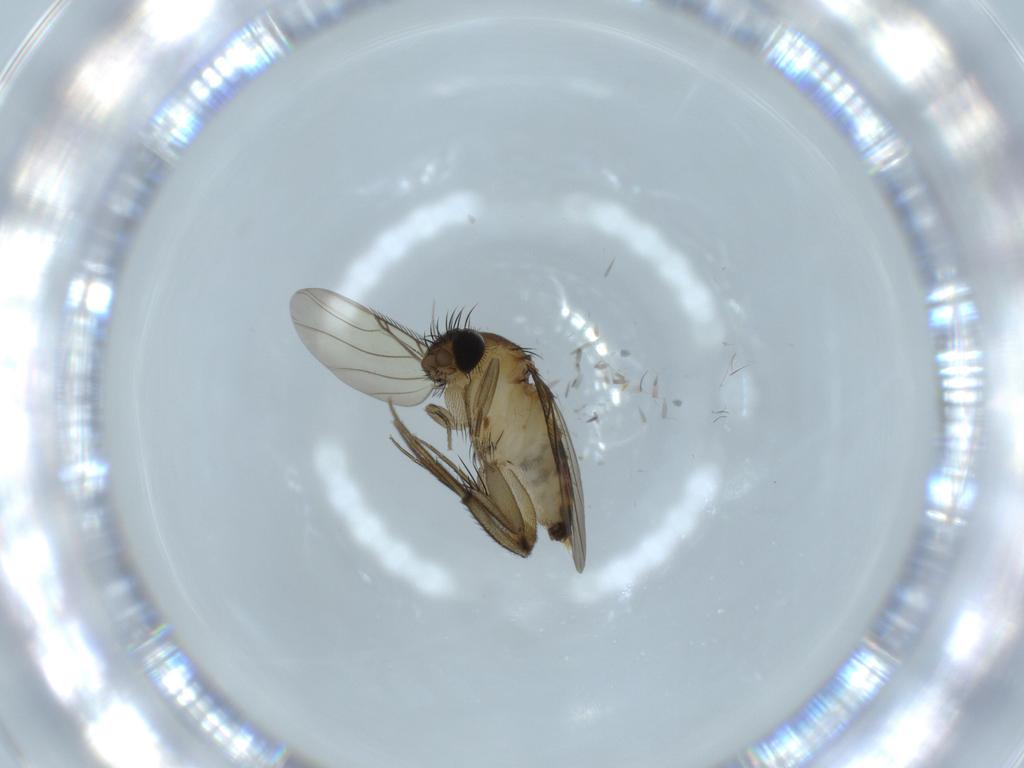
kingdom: Animalia
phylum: Arthropoda
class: Insecta
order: Diptera
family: Phoridae
